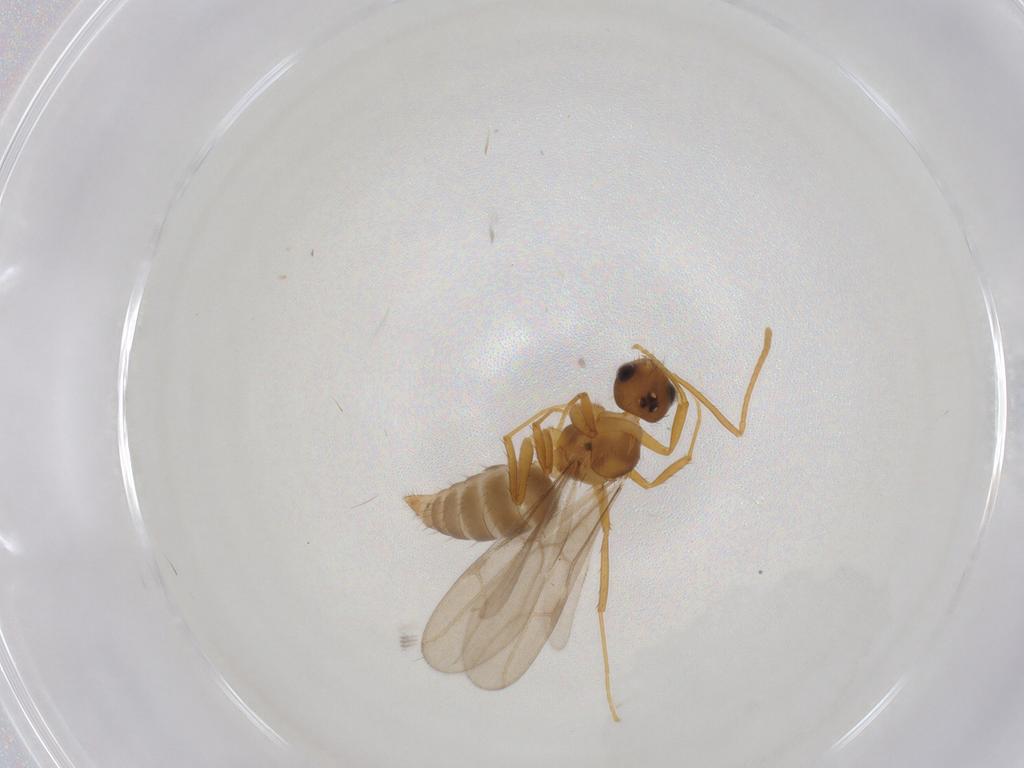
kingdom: Animalia
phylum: Arthropoda
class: Insecta
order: Hymenoptera
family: Formicidae
